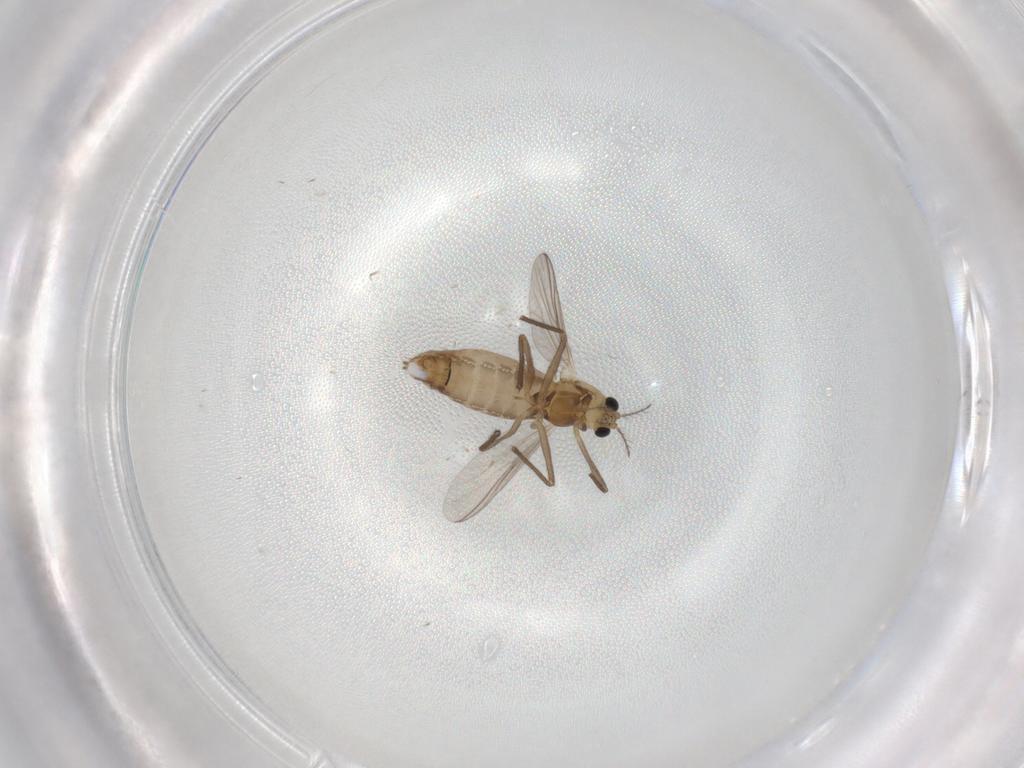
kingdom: Animalia
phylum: Arthropoda
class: Insecta
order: Diptera
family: Chironomidae
